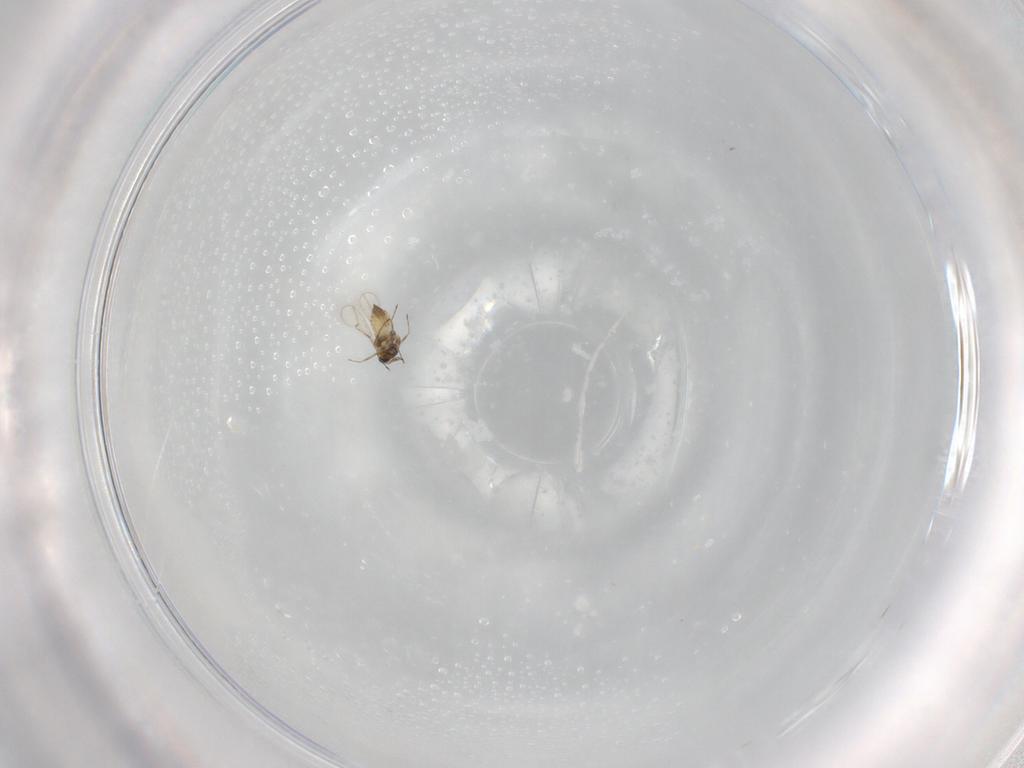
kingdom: Animalia
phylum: Arthropoda
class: Insecta
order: Hymenoptera
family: Trichogrammatidae
